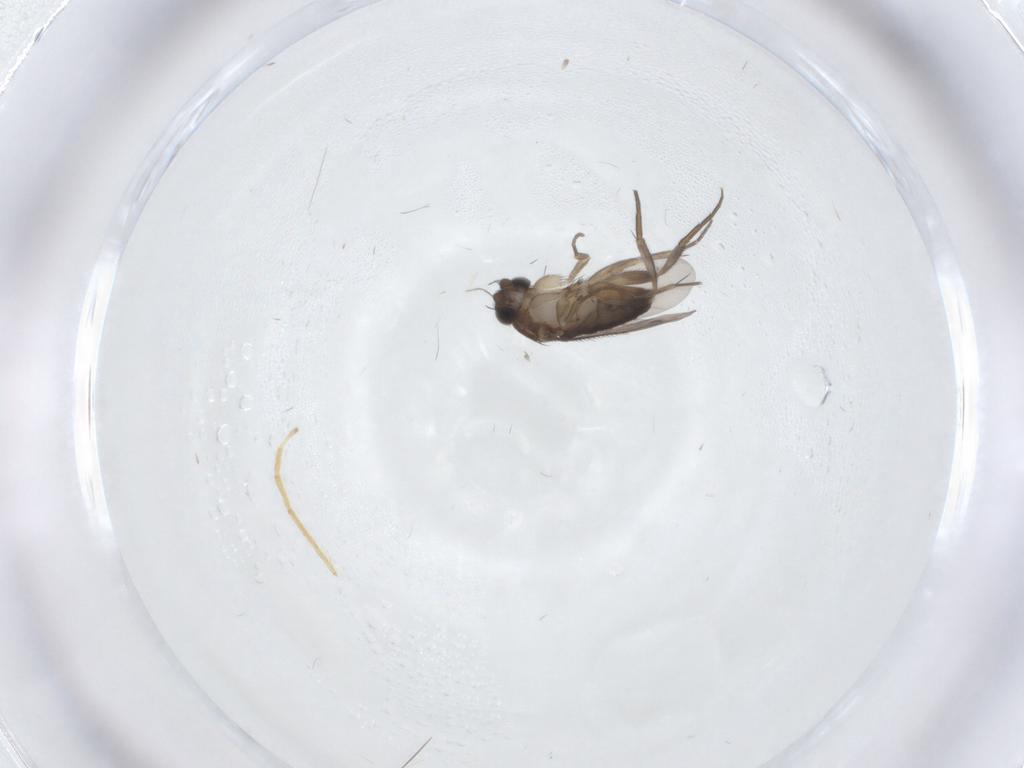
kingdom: Animalia
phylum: Arthropoda
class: Insecta
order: Diptera
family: Phoridae
